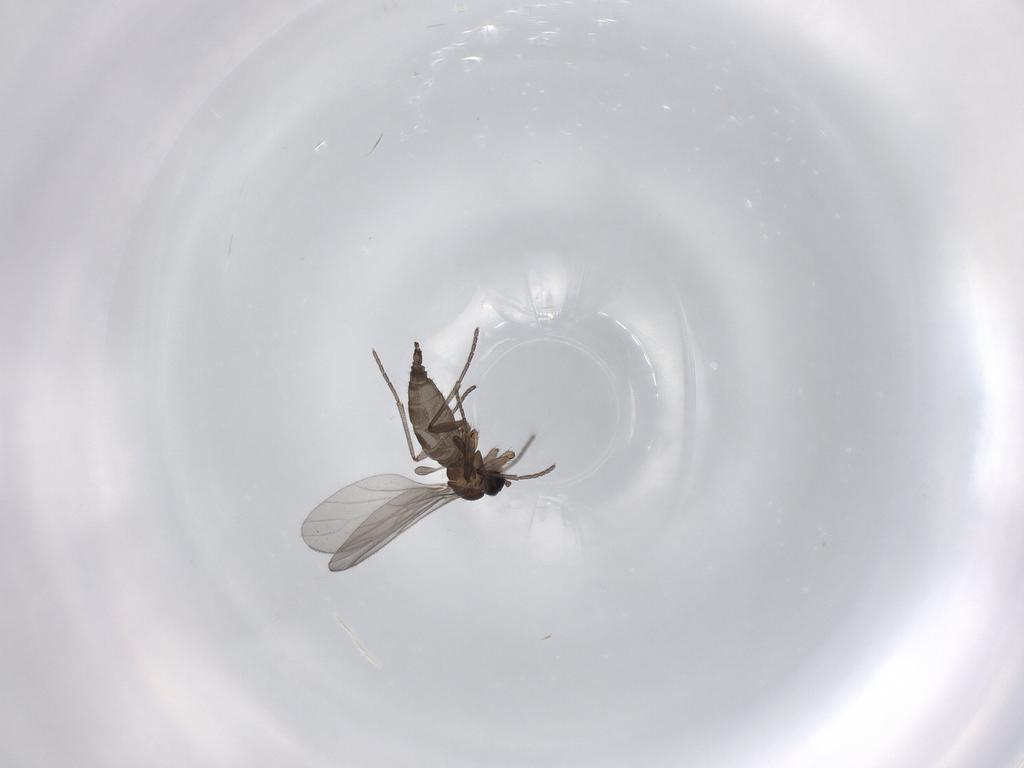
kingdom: Animalia
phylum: Arthropoda
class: Insecta
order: Diptera
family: Sciaridae
